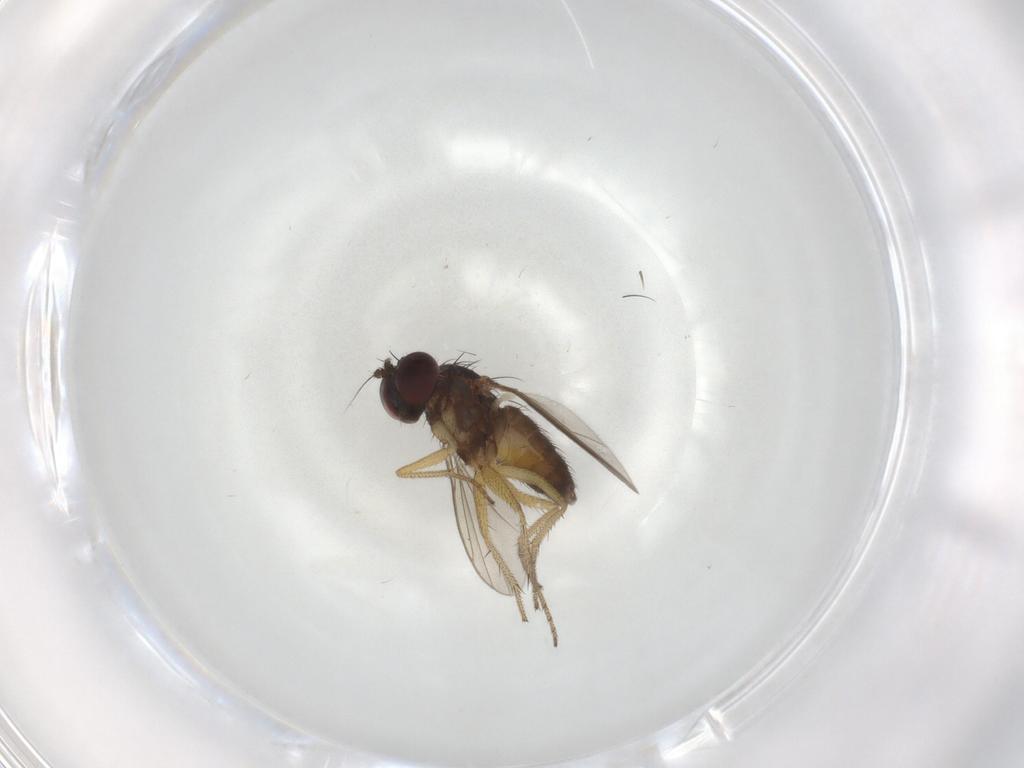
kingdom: Animalia
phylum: Arthropoda
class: Insecta
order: Diptera
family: Dolichopodidae
